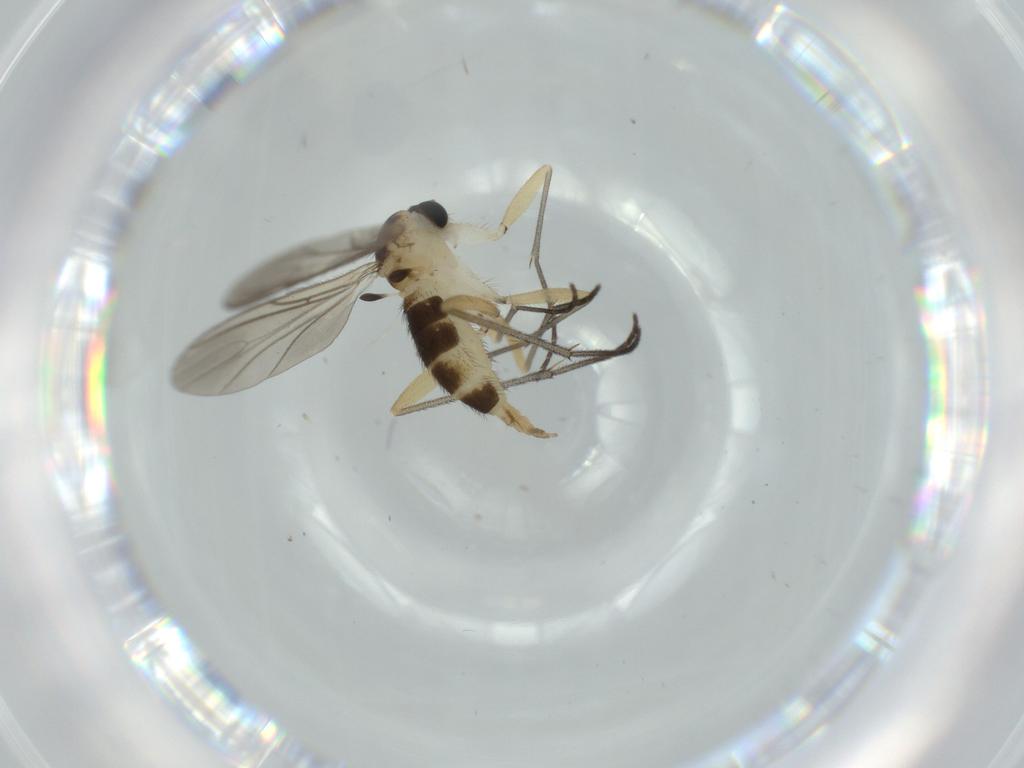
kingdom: Animalia
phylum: Arthropoda
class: Insecta
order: Diptera
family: Sciaridae
